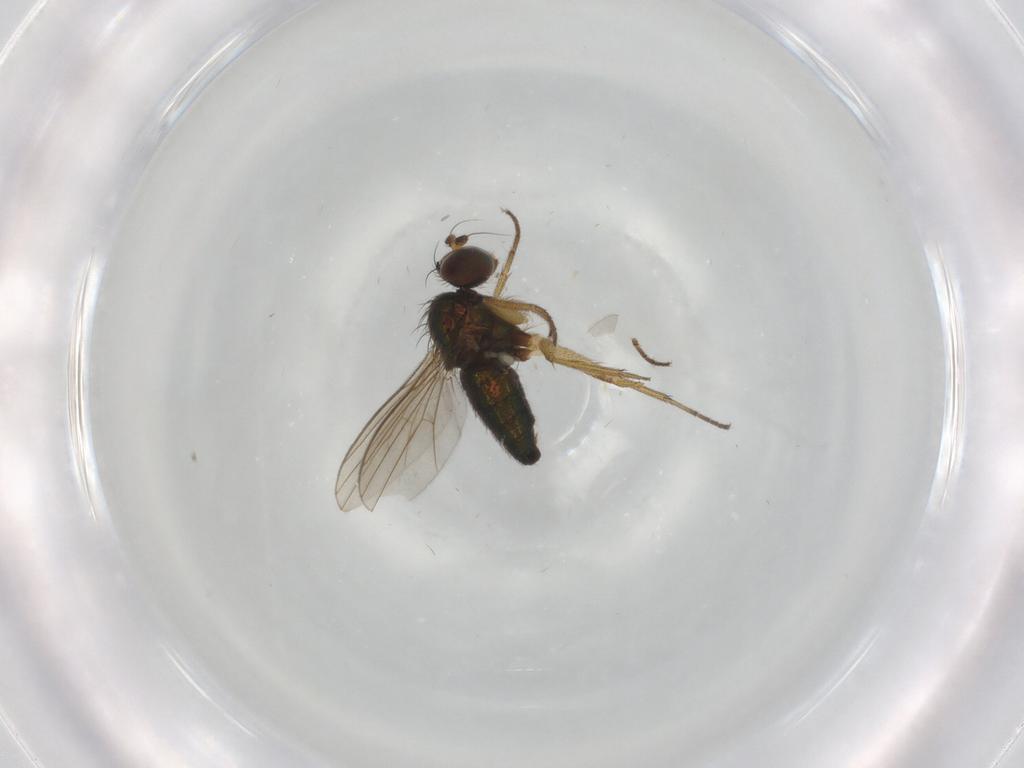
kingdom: Animalia
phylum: Arthropoda
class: Insecta
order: Diptera
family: Dolichopodidae
